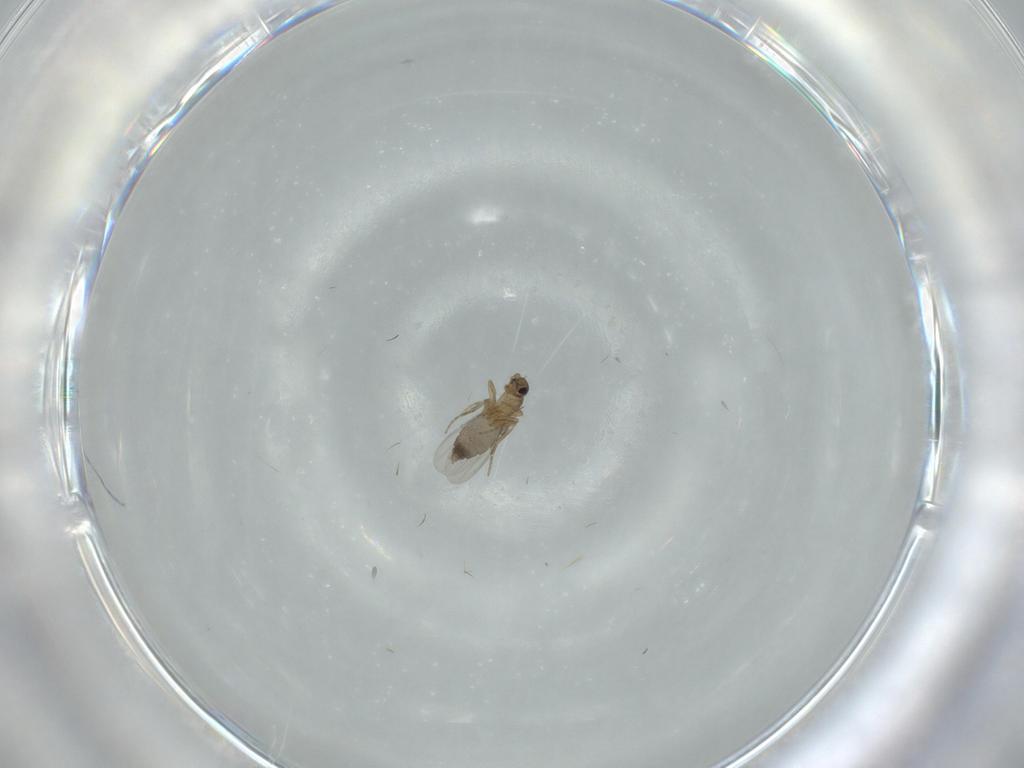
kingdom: Animalia
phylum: Arthropoda
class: Insecta
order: Diptera
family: Phoridae
